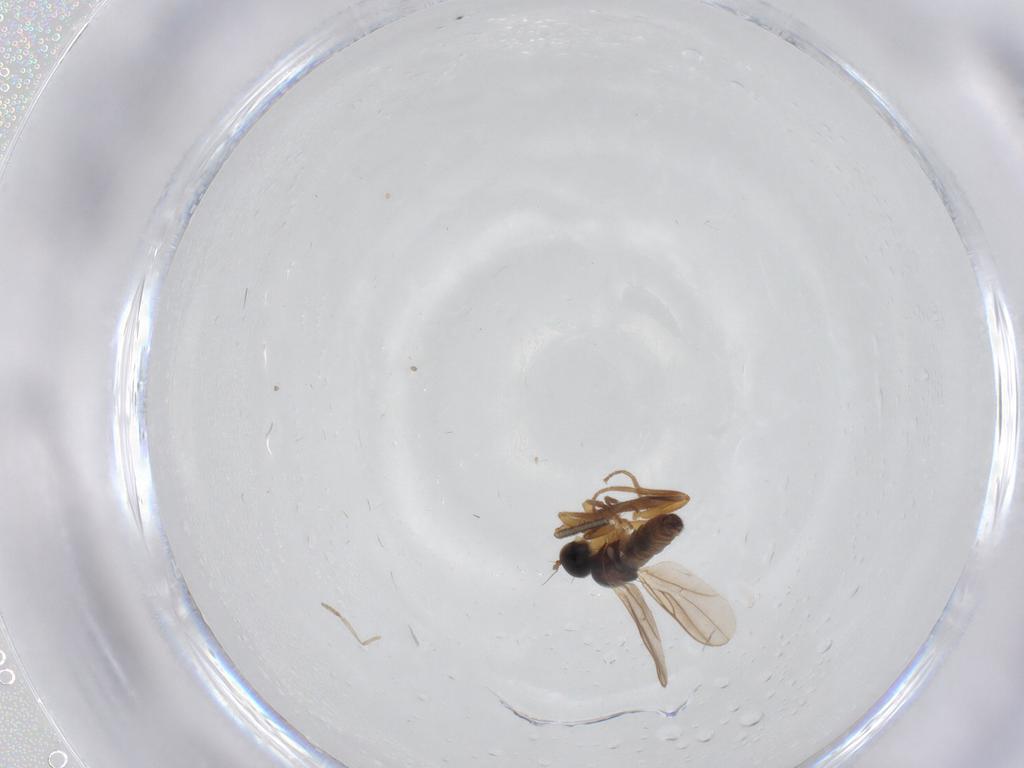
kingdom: Animalia
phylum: Arthropoda
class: Insecta
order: Diptera
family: Hybotidae
